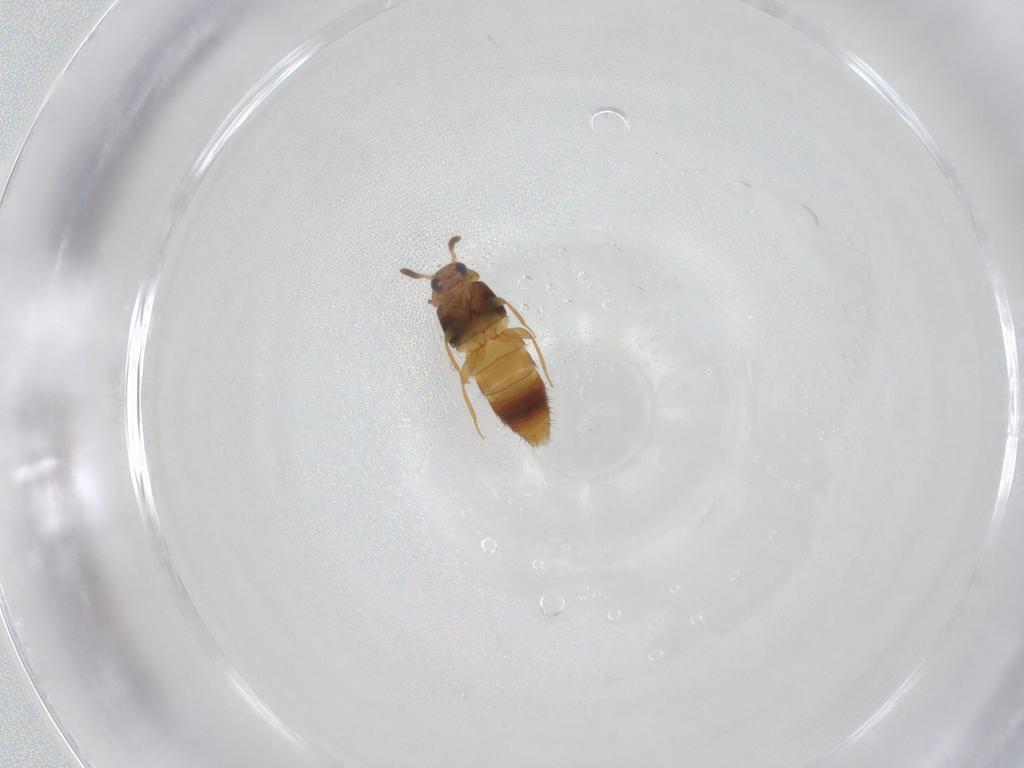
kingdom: Animalia
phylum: Arthropoda
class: Insecta
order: Coleoptera
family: Staphylinidae
